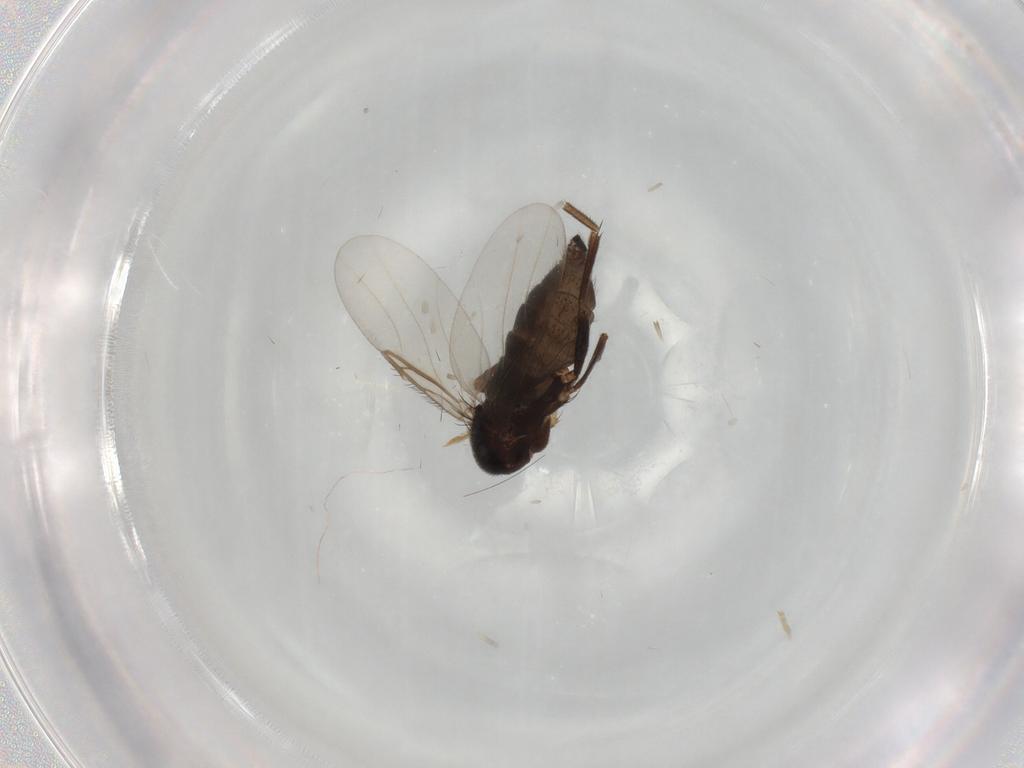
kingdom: Animalia
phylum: Arthropoda
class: Insecta
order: Diptera
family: Phoridae
